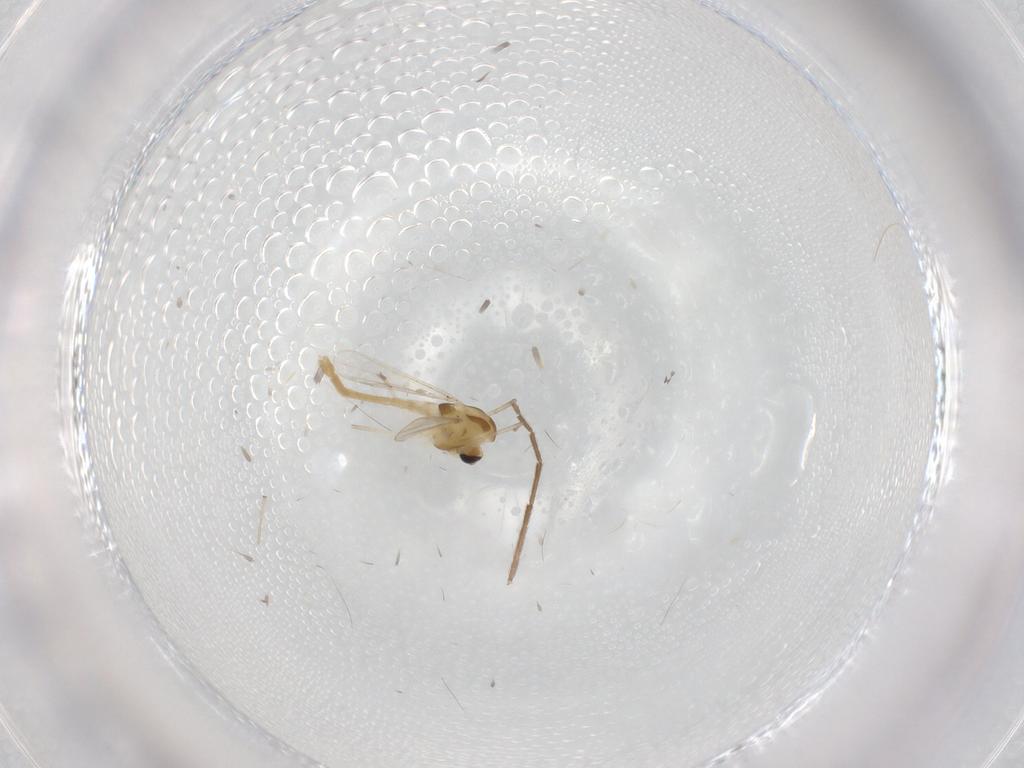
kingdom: Animalia
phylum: Arthropoda
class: Insecta
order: Diptera
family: Chironomidae
